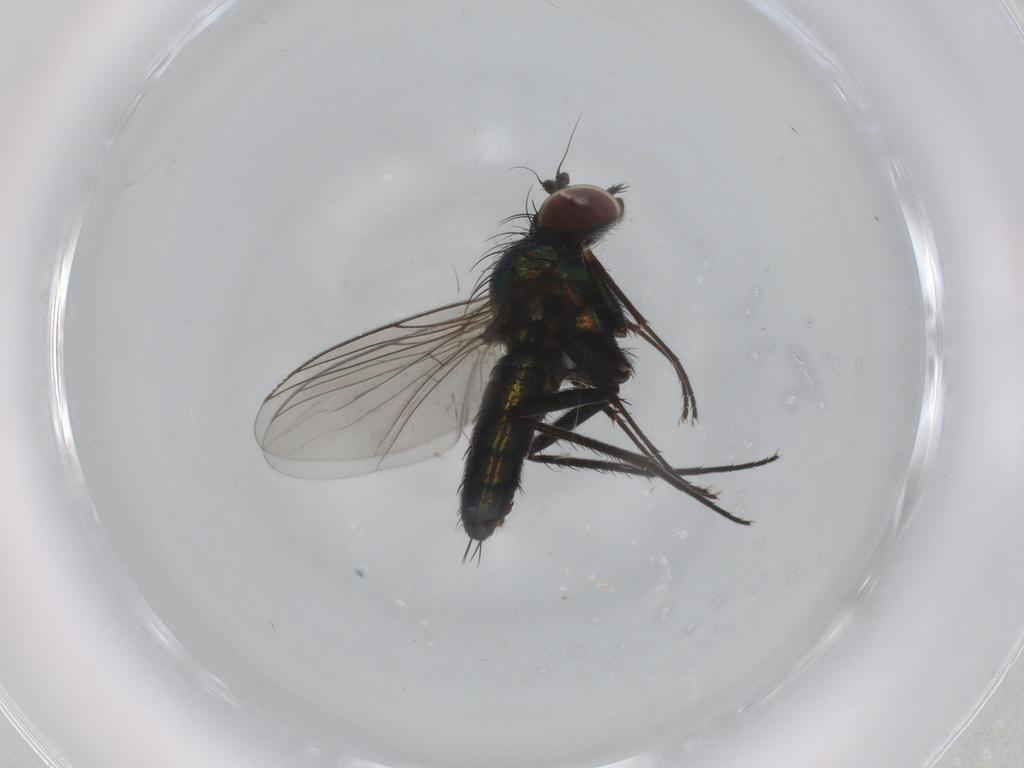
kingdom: Animalia
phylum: Arthropoda
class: Insecta
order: Diptera
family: Dolichopodidae
